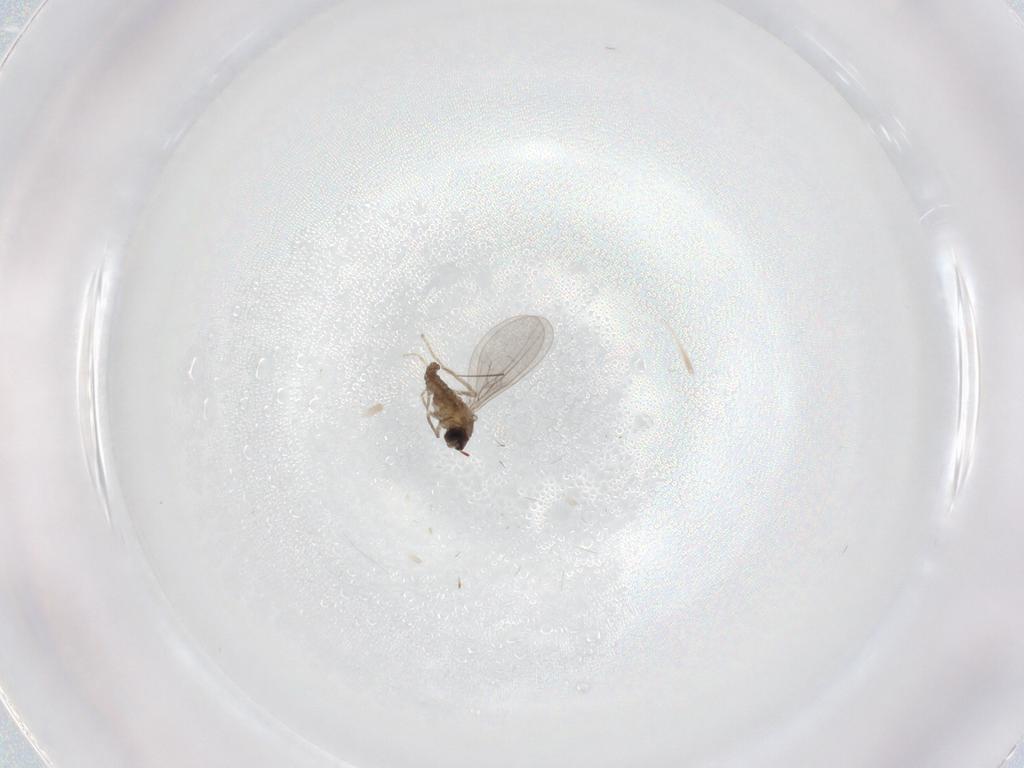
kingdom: Animalia
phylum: Arthropoda
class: Insecta
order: Diptera
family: Cecidomyiidae
